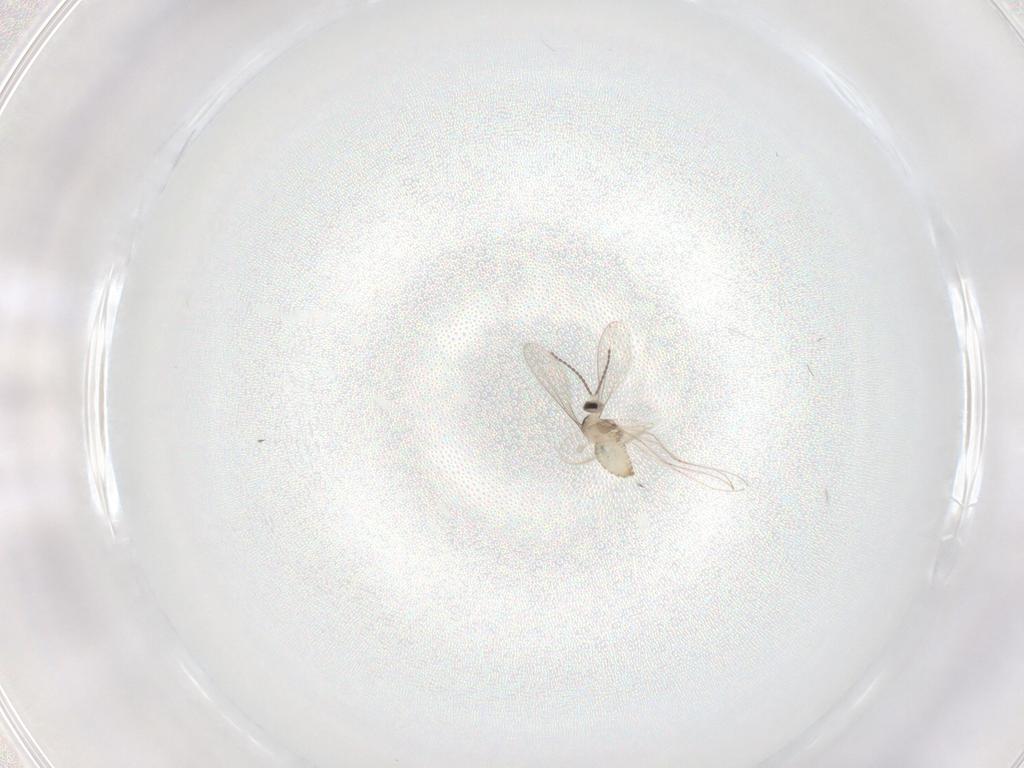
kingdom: Animalia
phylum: Arthropoda
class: Insecta
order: Diptera
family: Cecidomyiidae
